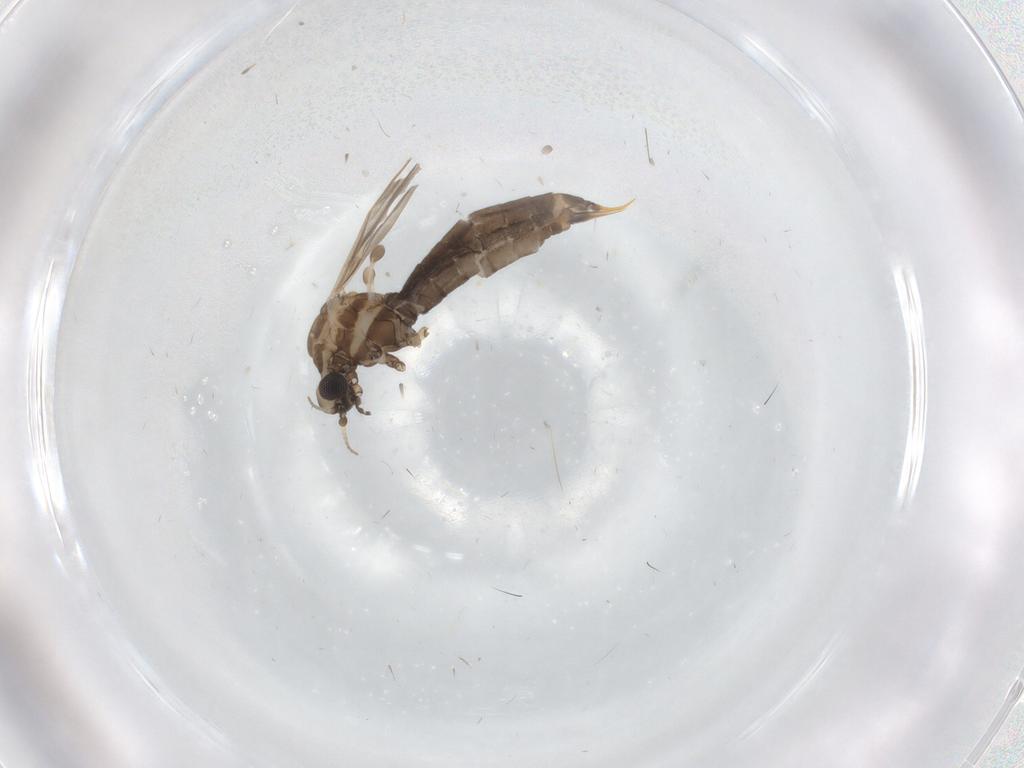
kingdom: Animalia
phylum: Arthropoda
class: Insecta
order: Diptera
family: Limoniidae
